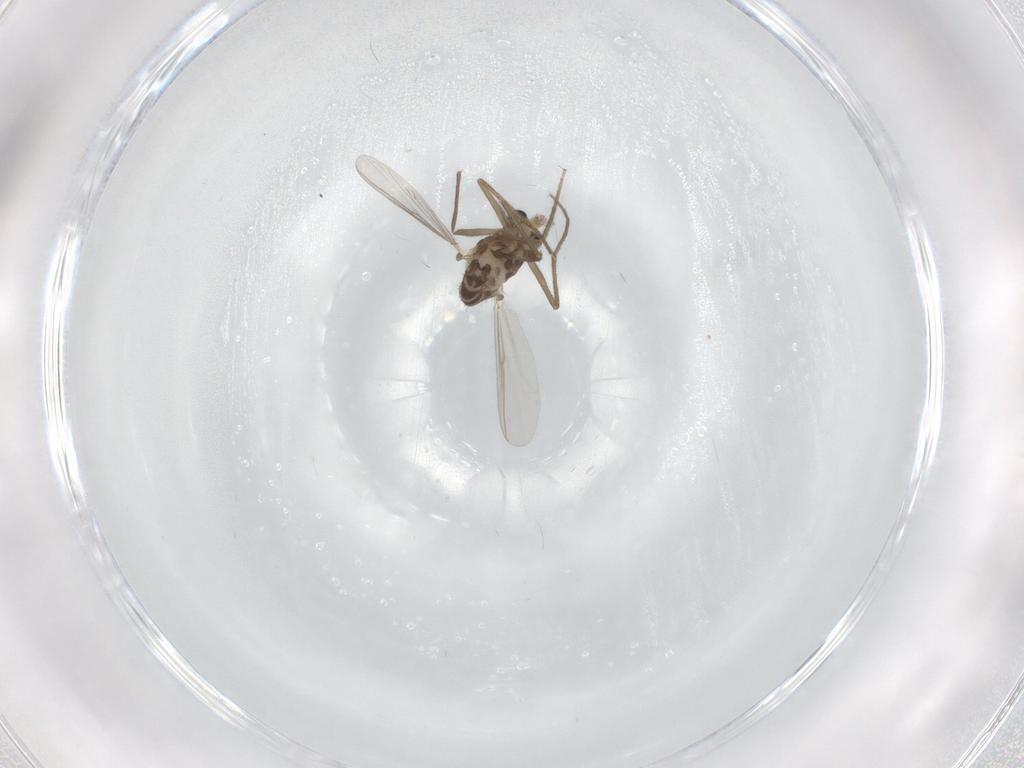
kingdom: Animalia
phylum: Arthropoda
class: Insecta
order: Diptera
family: Chironomidae
